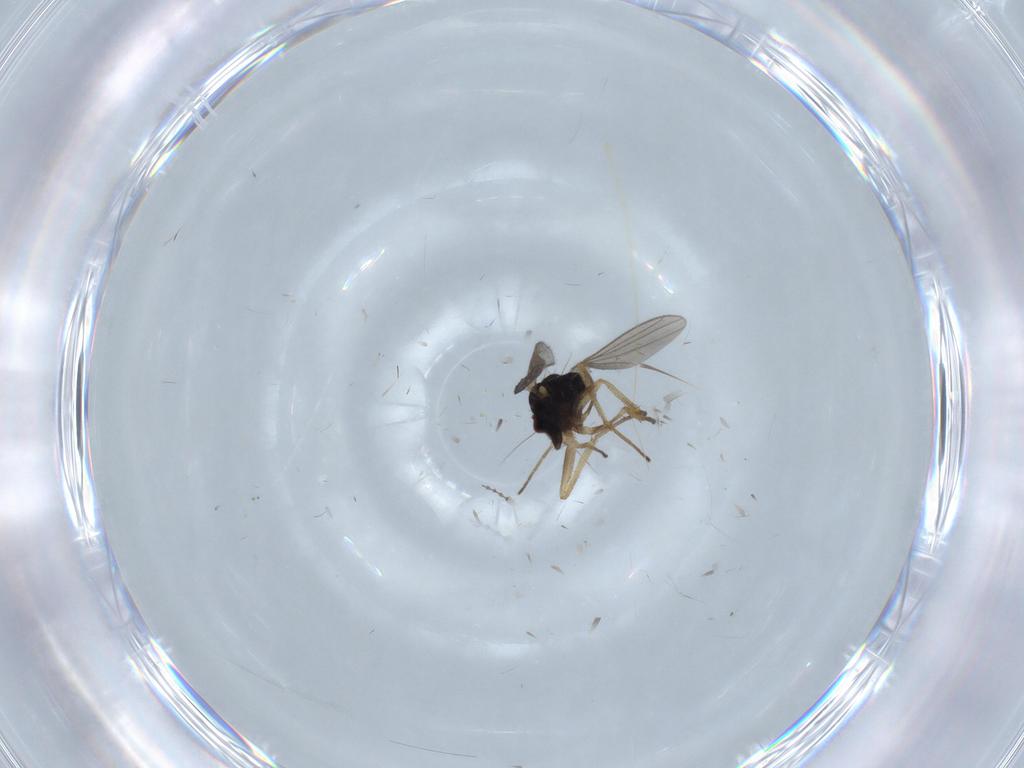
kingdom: Animalia
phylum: Arthropoda
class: Insecta
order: Diptera
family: Dolichopodidae
